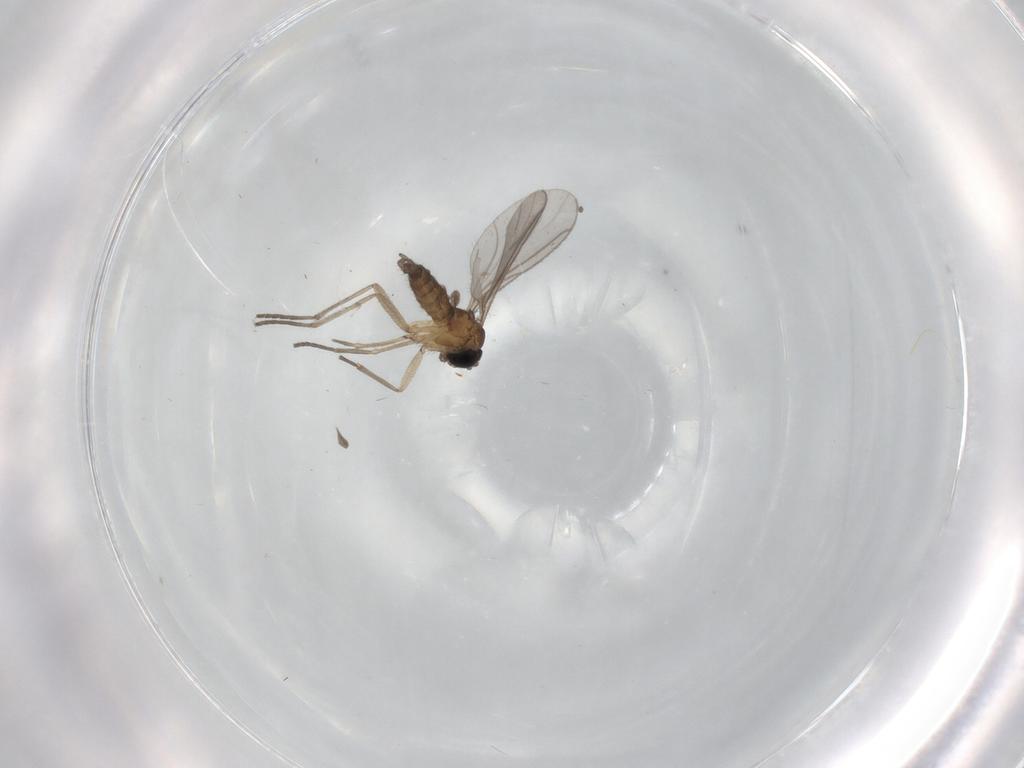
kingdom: Animalia
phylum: Arthropoda
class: Insecta
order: Diptera
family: Sciaridae
